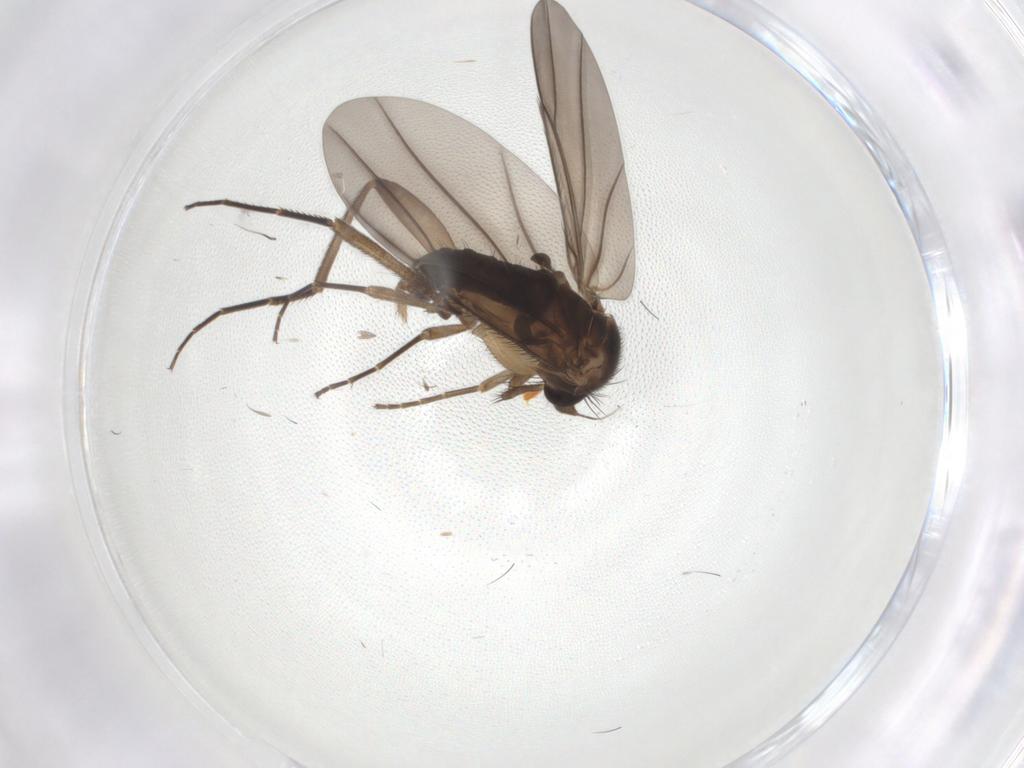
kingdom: Animalia
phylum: Arthropoda
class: Insecta
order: Diptera
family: Phoridae
